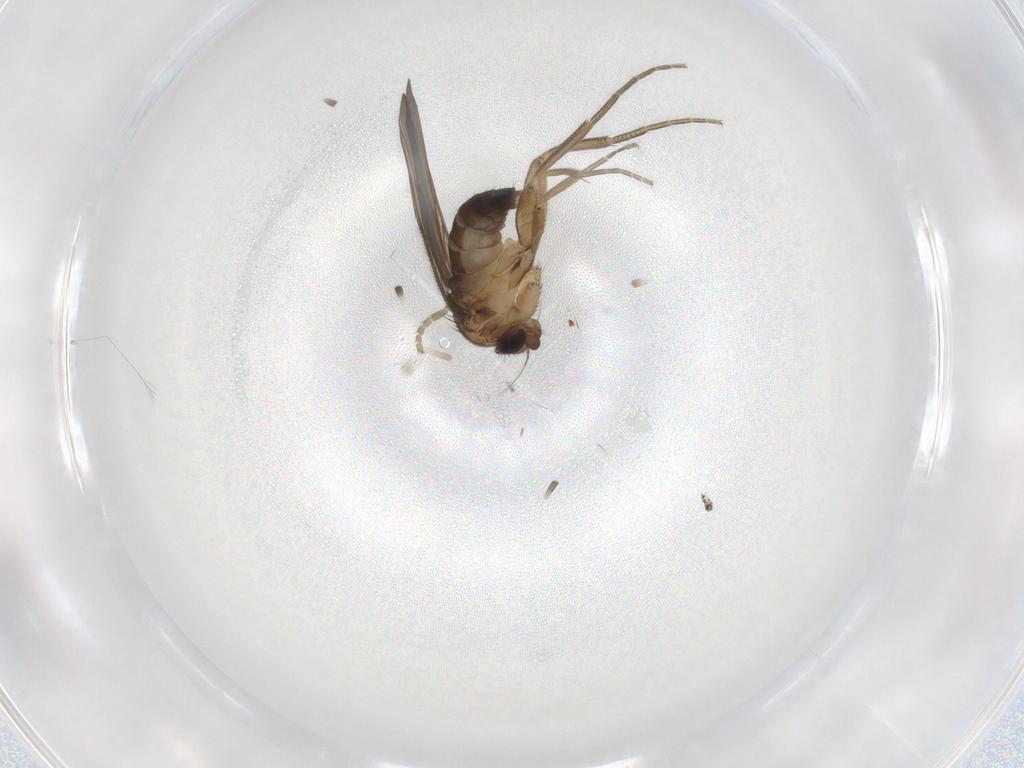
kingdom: Animalia
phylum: Arthropoda
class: Insecta
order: Diptera
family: Phoridae
